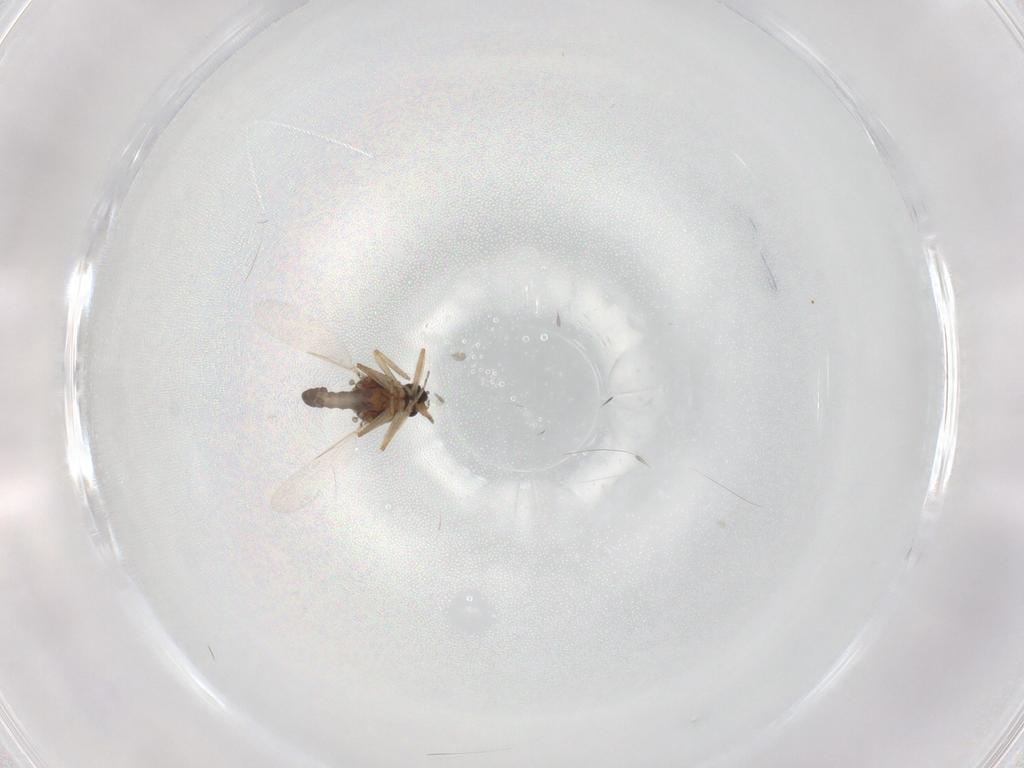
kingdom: Animalia
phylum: Arthropoda
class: Insecta
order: Diptera
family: Ceratopogonidae
